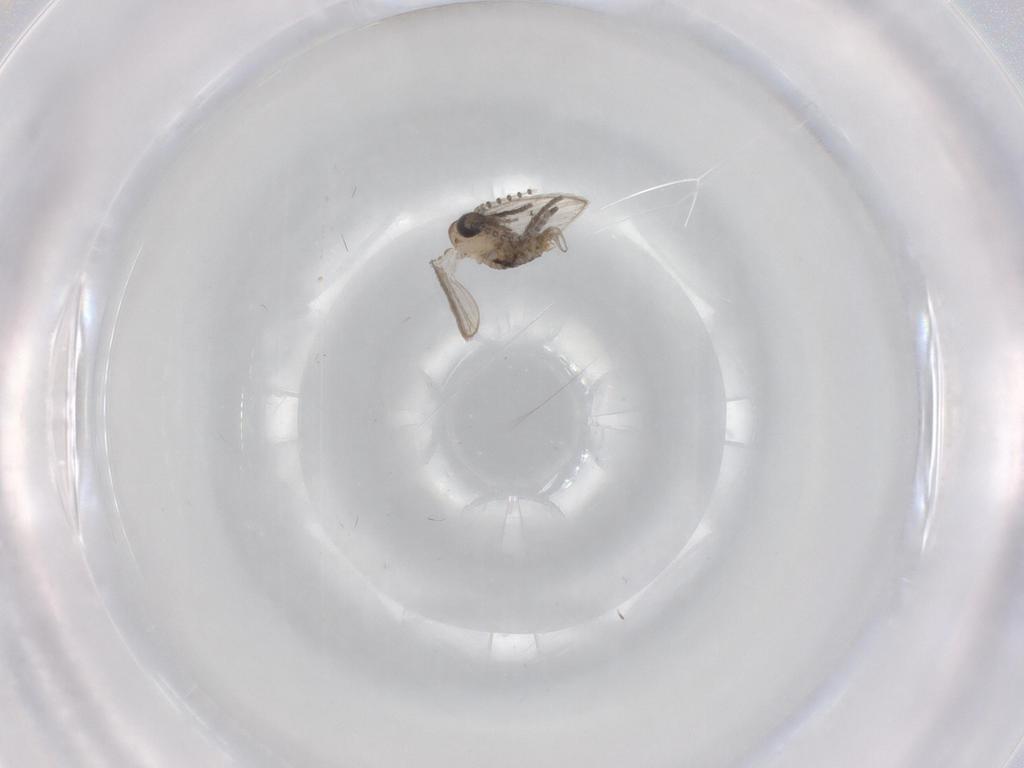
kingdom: Animalia
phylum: Arthropoda
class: Insecta
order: Diptera
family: Psychodidae
